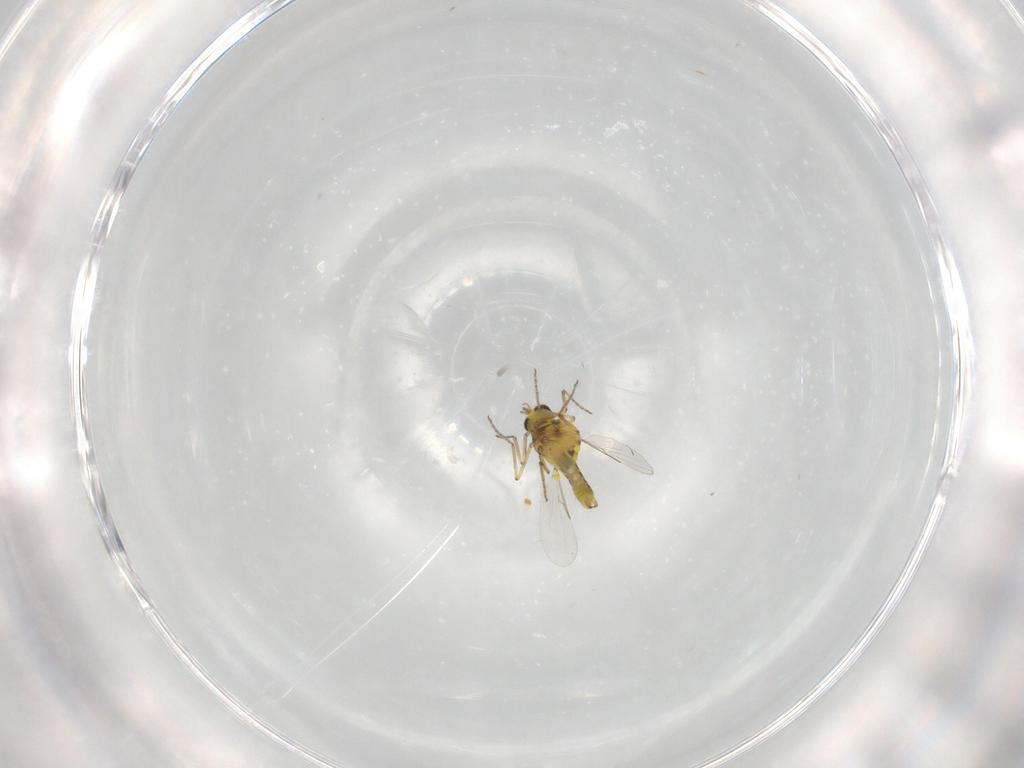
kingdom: Animalia
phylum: Arthropoda
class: Insecta
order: Diptera
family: Ceratopogonidae
